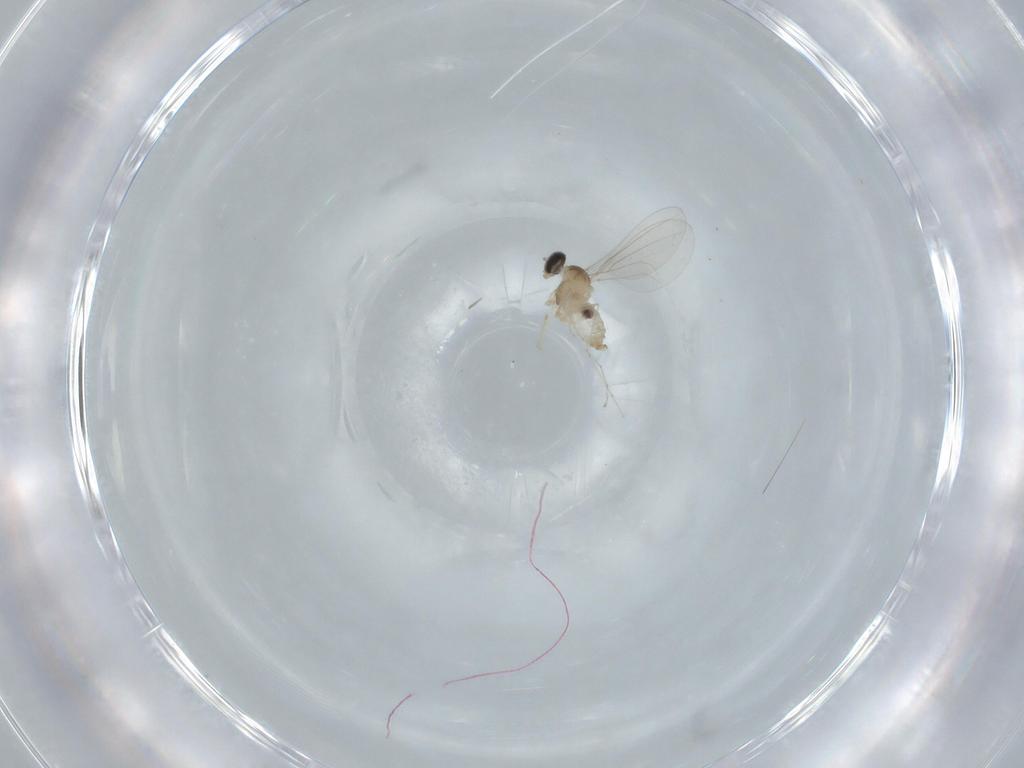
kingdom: Animalia
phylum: Arthropoda
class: Insecta
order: Diptera
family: Cecidomyiidae
